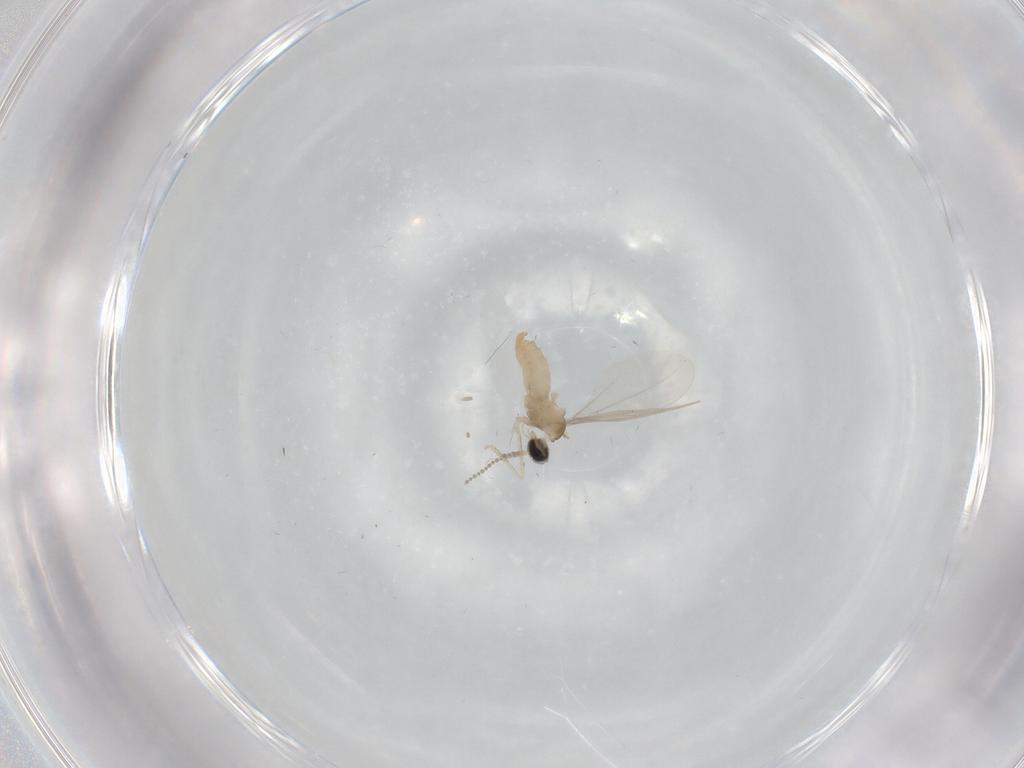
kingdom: Animalia
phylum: Arthropoda
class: Insecta
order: Diptera
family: Cecidomyiidae
